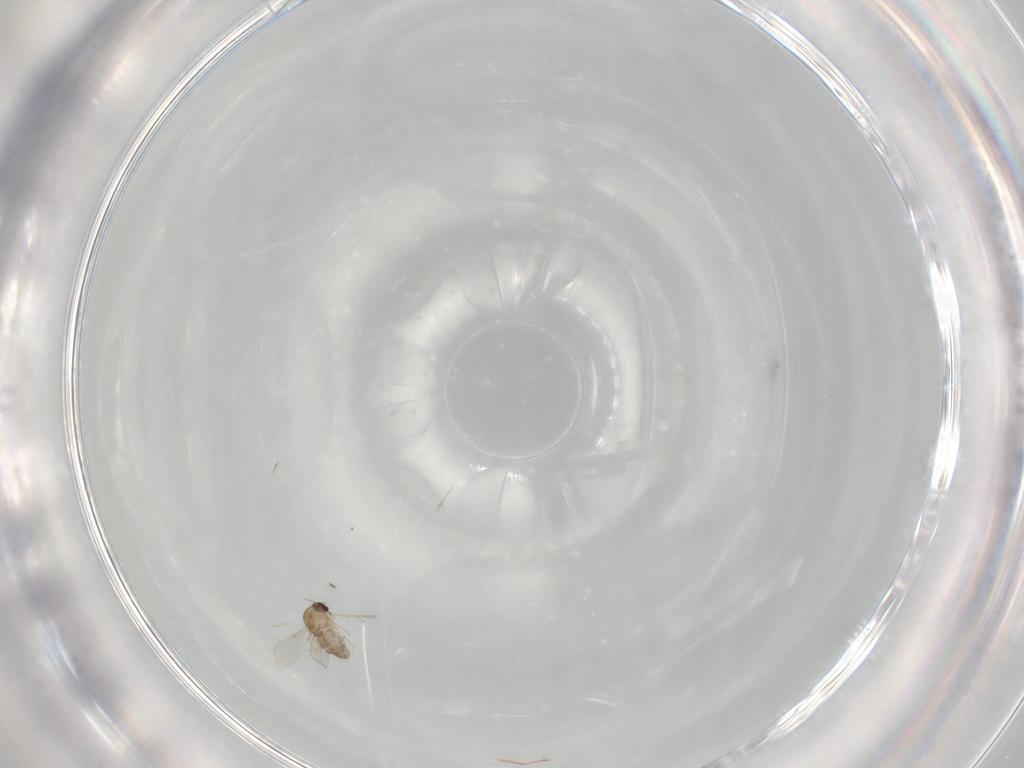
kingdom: Animalia
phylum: Arthropoda
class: Insecta
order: Diptera
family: Ceratopogonidae
